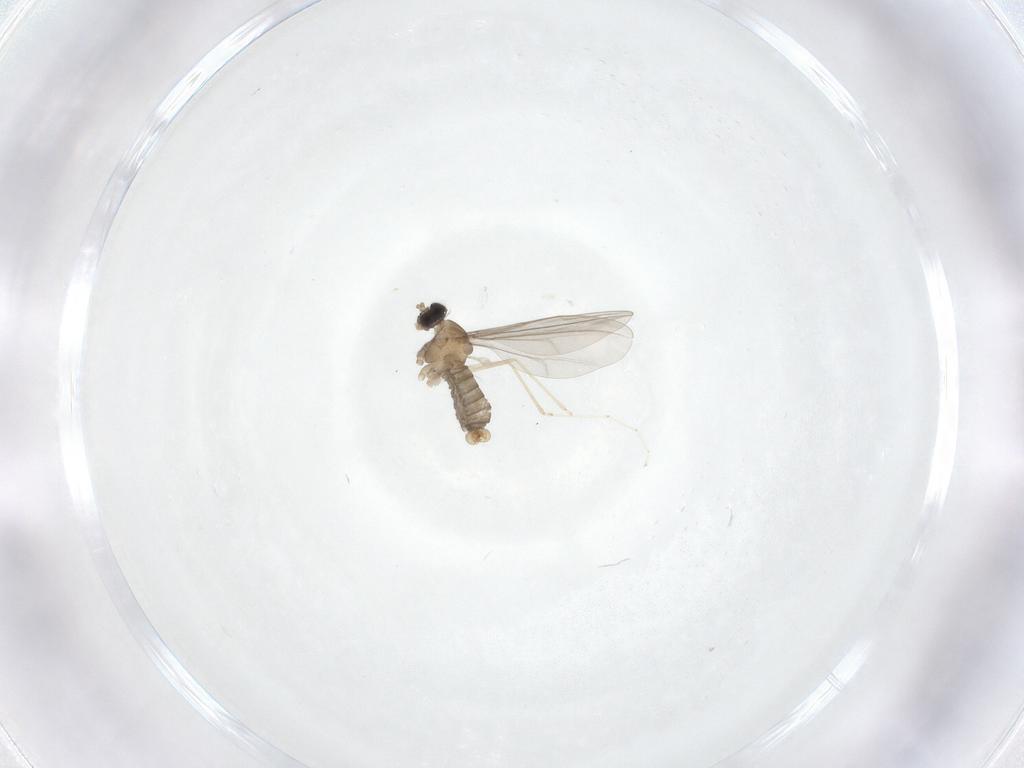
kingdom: Animalia
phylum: Arthropoda
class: Insecta
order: Diptera
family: Cecidomyiidae
